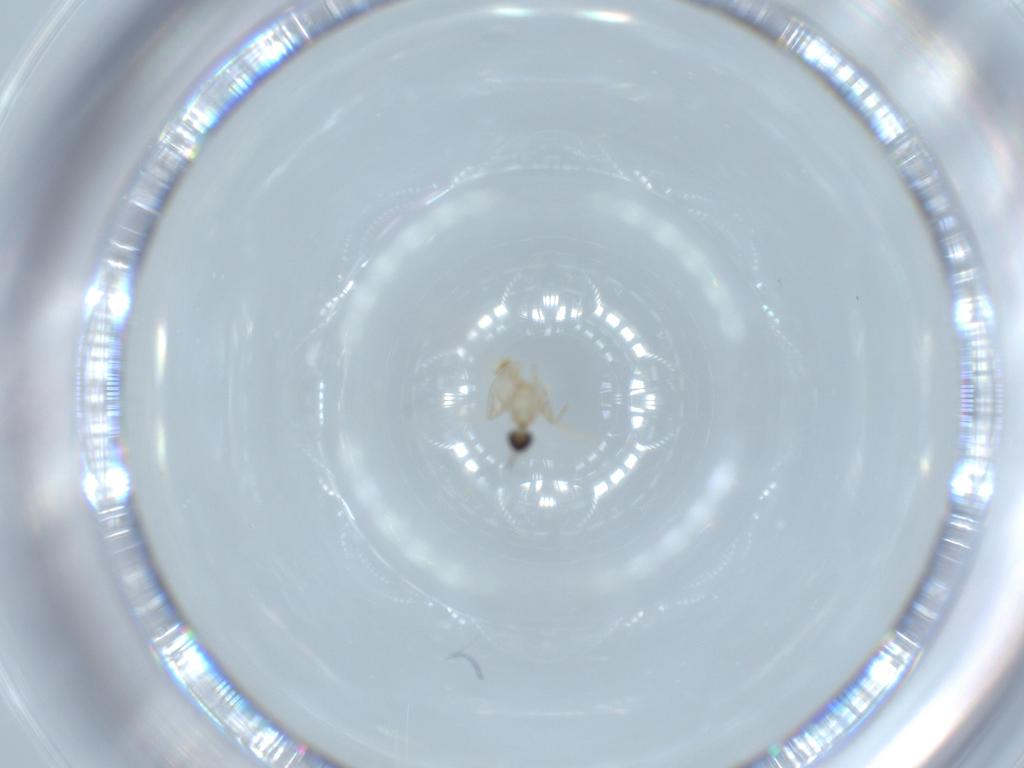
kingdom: Animalia
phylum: Arthropoda
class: Insecta
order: Diptera
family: Cecidomyiidae
